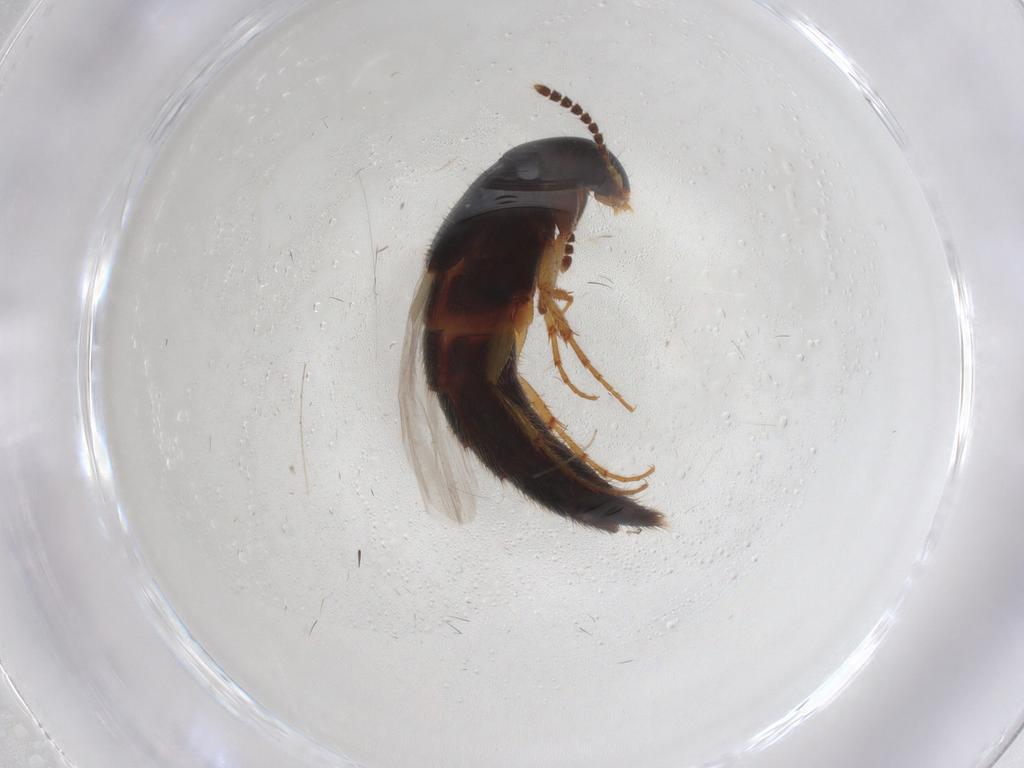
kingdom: Animalia
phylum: Arthropoda
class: Insecta
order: Coleoptera
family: Staphylinidae
